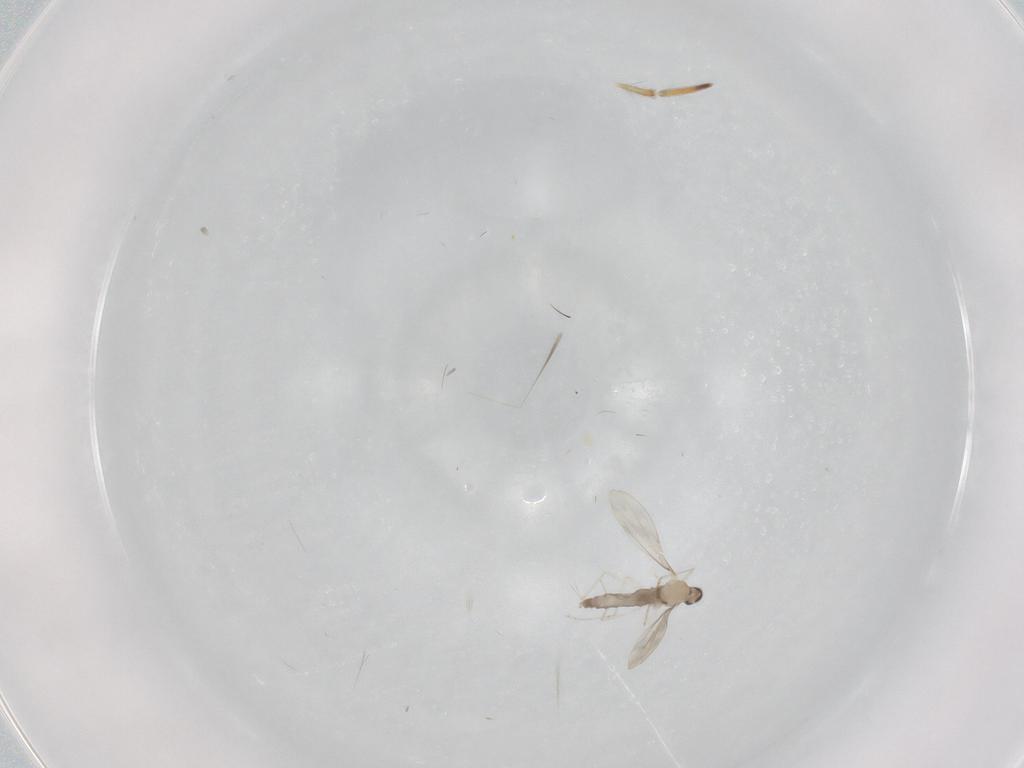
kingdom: Animalia
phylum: Arthropoda
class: Insecta
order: Diptera
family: Cecidomyiidae
